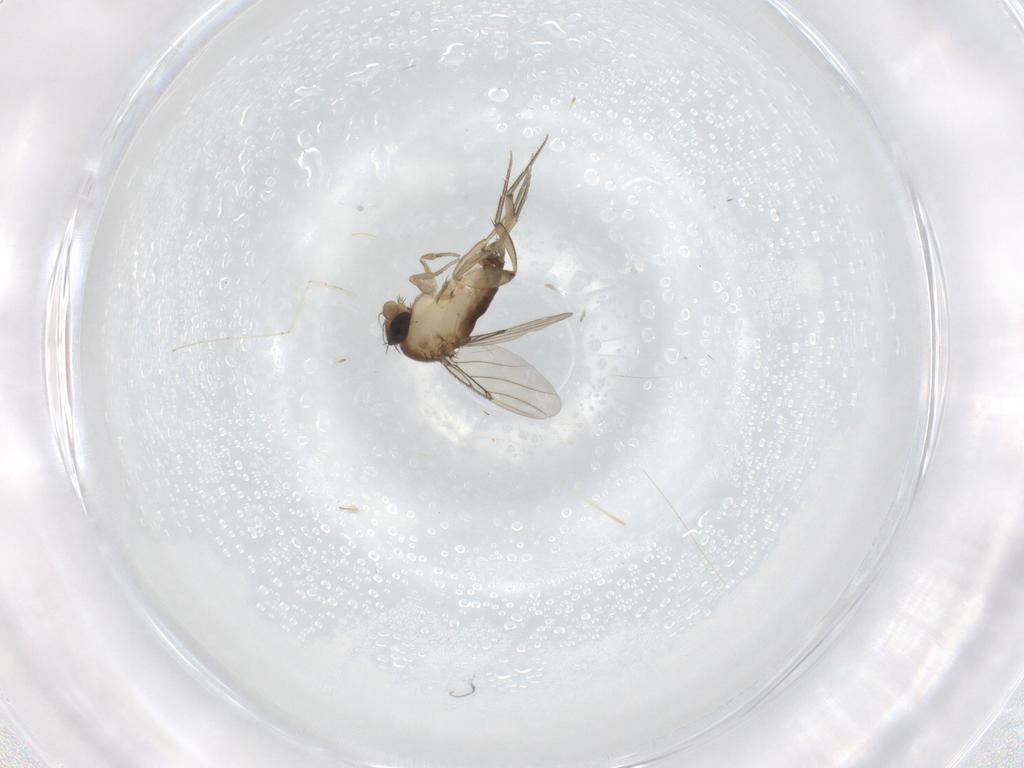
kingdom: Animalia
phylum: Arthropoda
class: Insecta
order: Diptera
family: Phoridae
